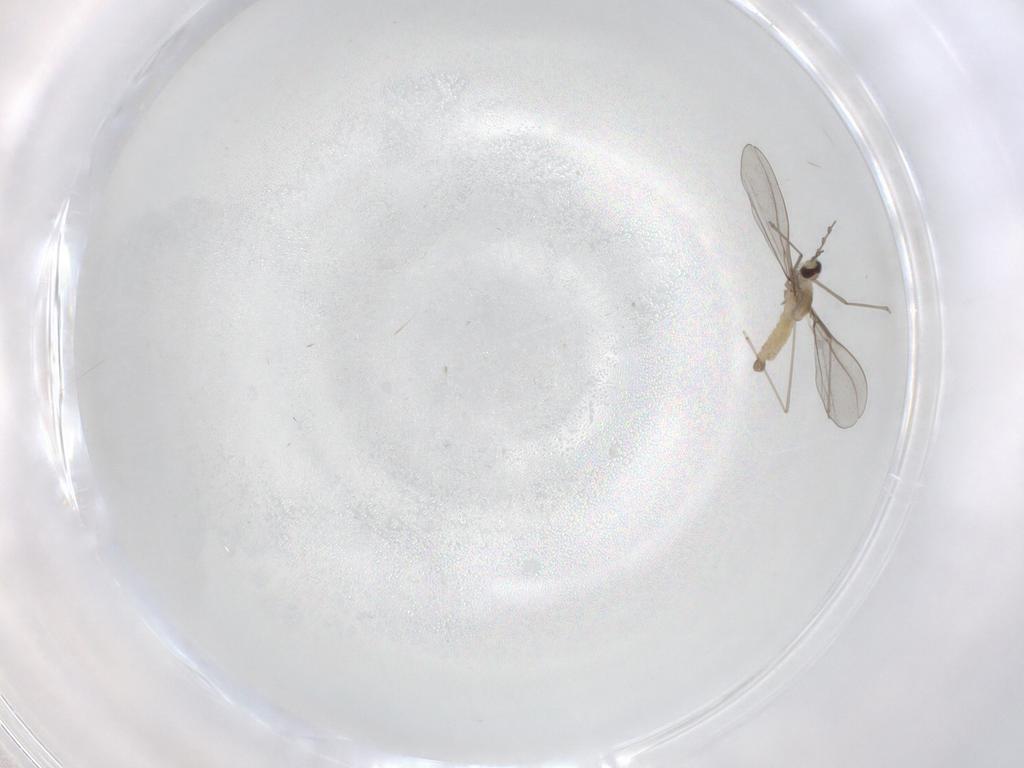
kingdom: Animalia
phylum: Arthropoda
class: Insecta
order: Diptera
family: Cecidomyiidae
